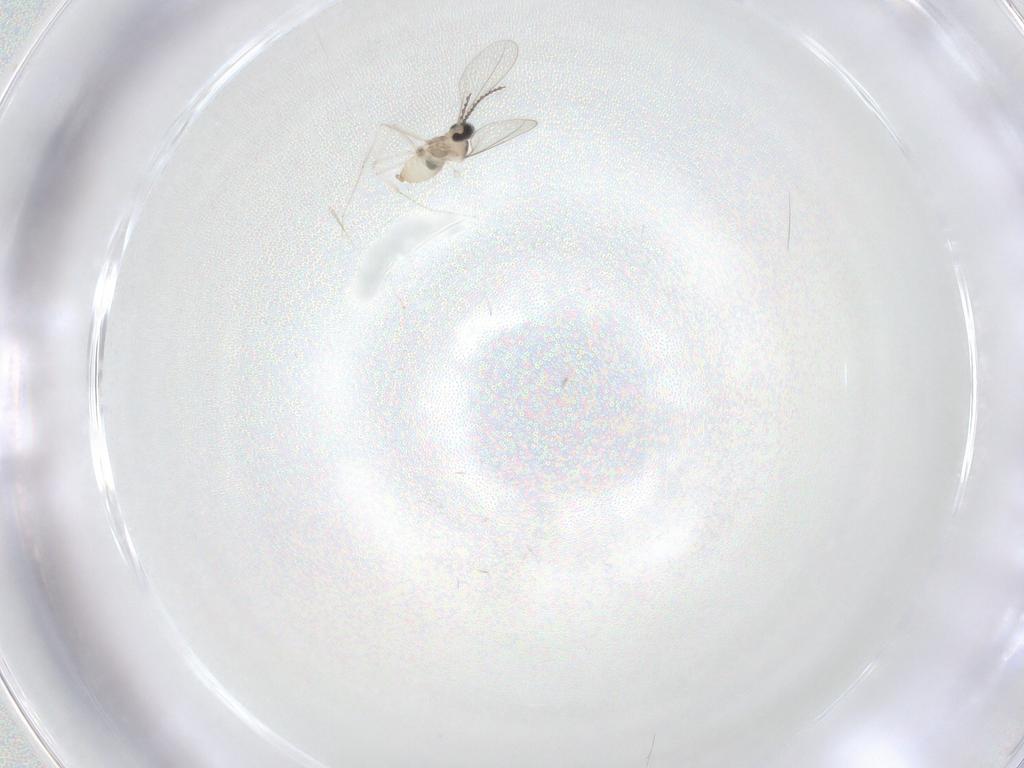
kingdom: Animalia
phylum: Arthropoda
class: Insecta
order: Diptera
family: Cecidomyiidae
